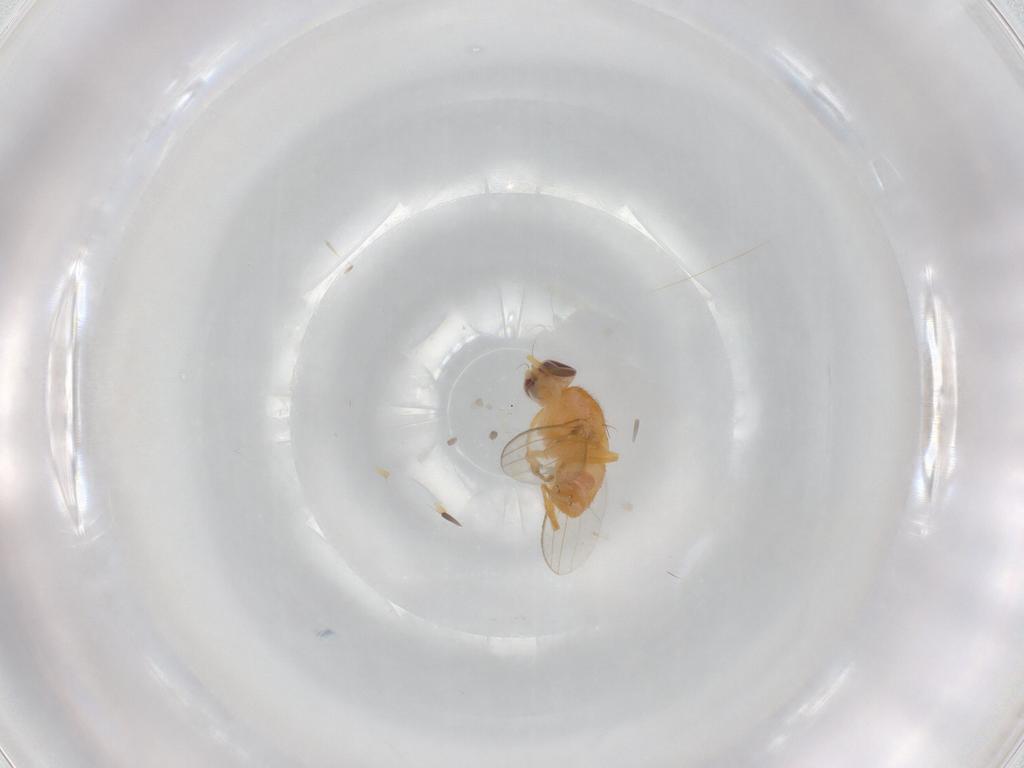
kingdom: Animalia
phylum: Arthropoda
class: Insecta
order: Diptera
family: Chyromyidae
